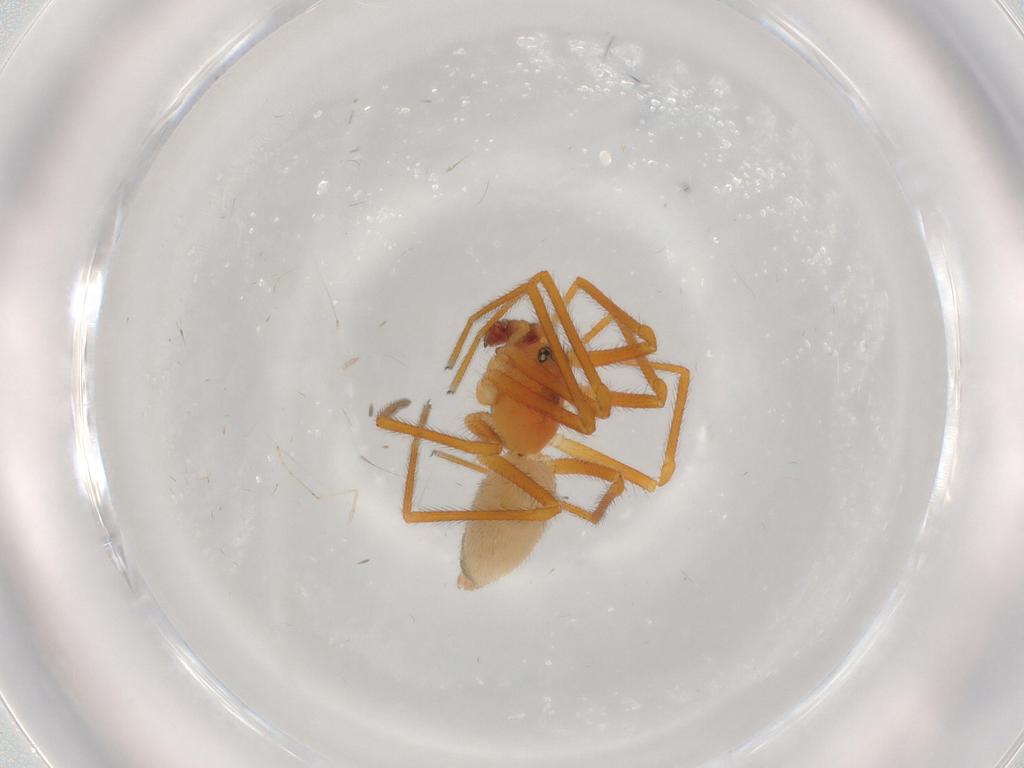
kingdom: Animalia
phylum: Arthropoda
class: Arachnida
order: Araneae
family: Linyphiidae
